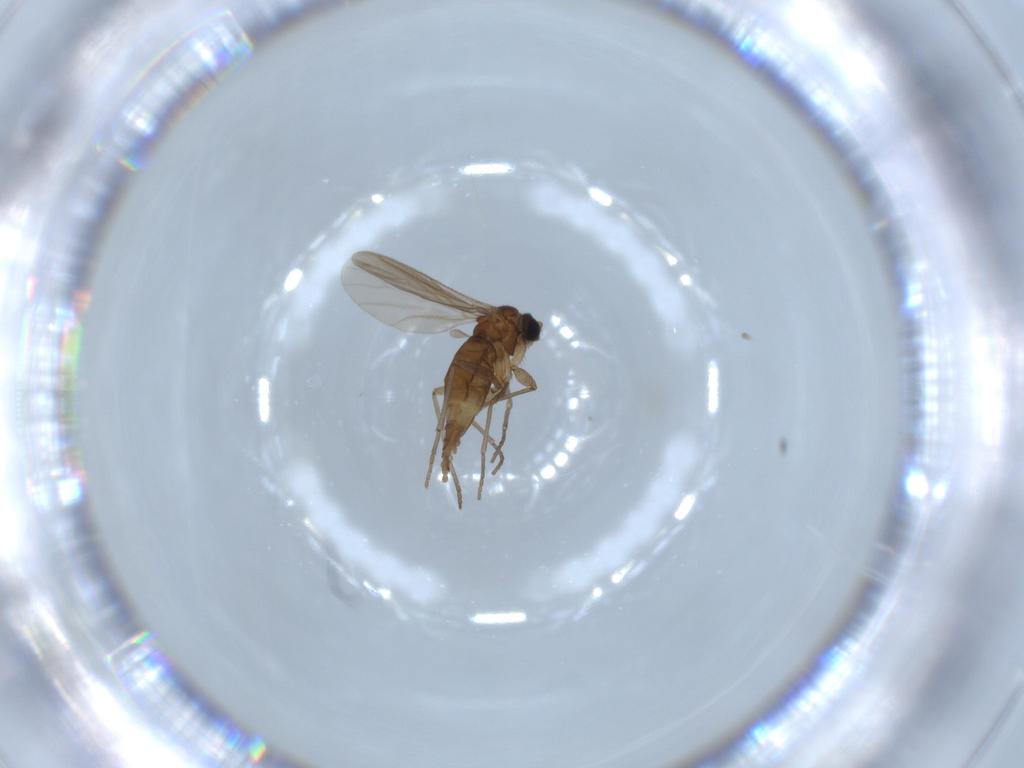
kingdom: Animalia
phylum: Arthropoda
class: Insecta
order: Diptera
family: Sciaridae
